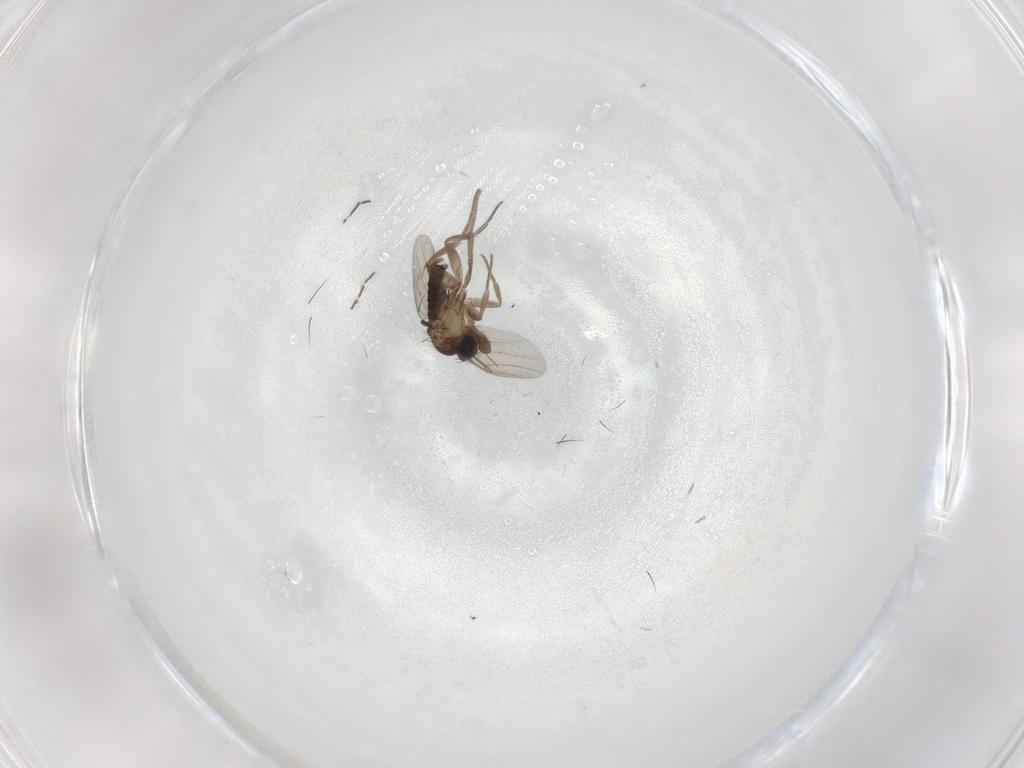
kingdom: Animalia
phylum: Arthropoda
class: Insecta
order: Diptera
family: Sciaridae
